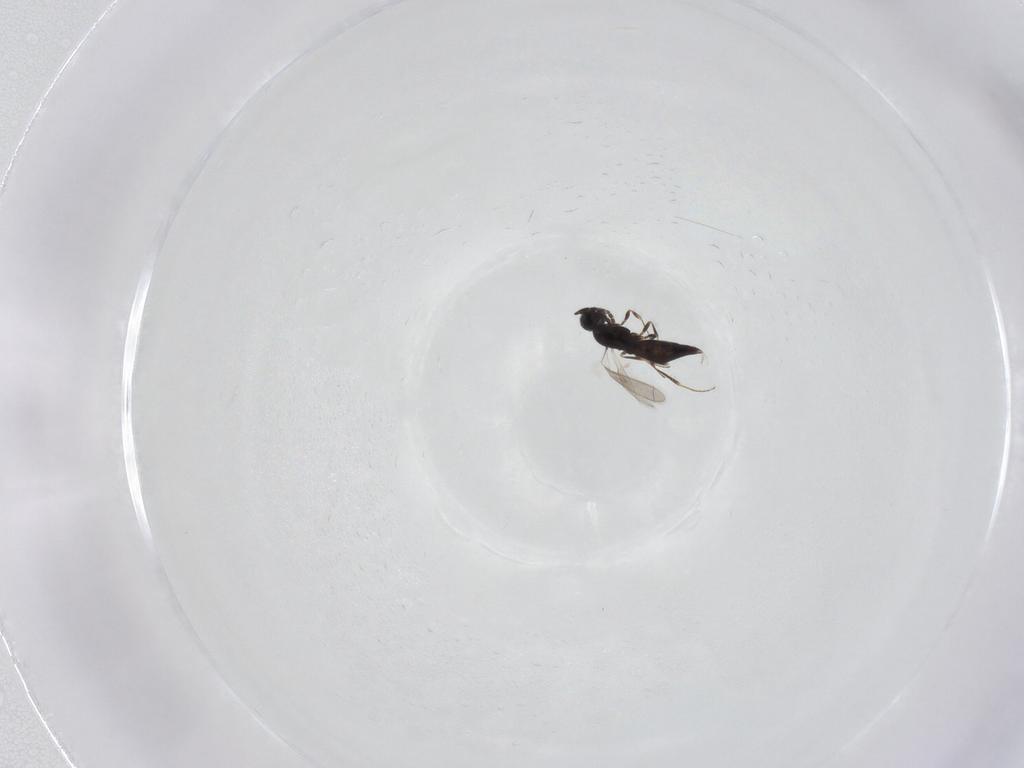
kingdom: Animalia
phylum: Arthropoda
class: Insecta
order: Hymenoptera
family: Scelionidae
